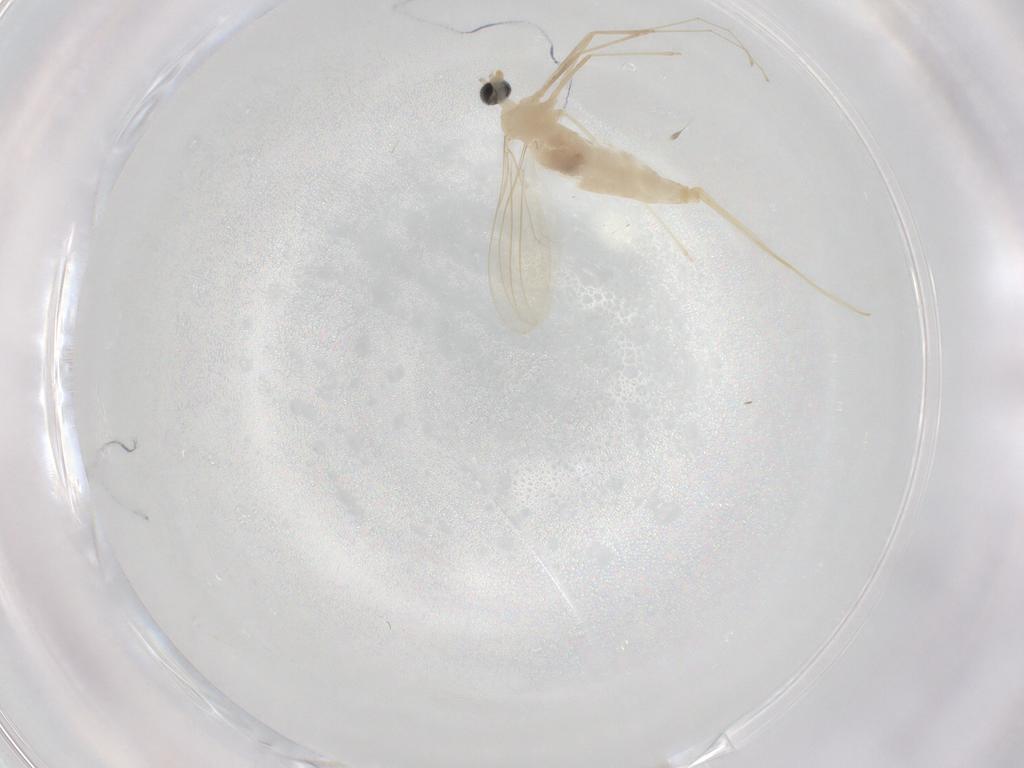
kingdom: Animalia
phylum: Arthropoda
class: Insecta
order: Diptera
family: Cecidomyiidae
